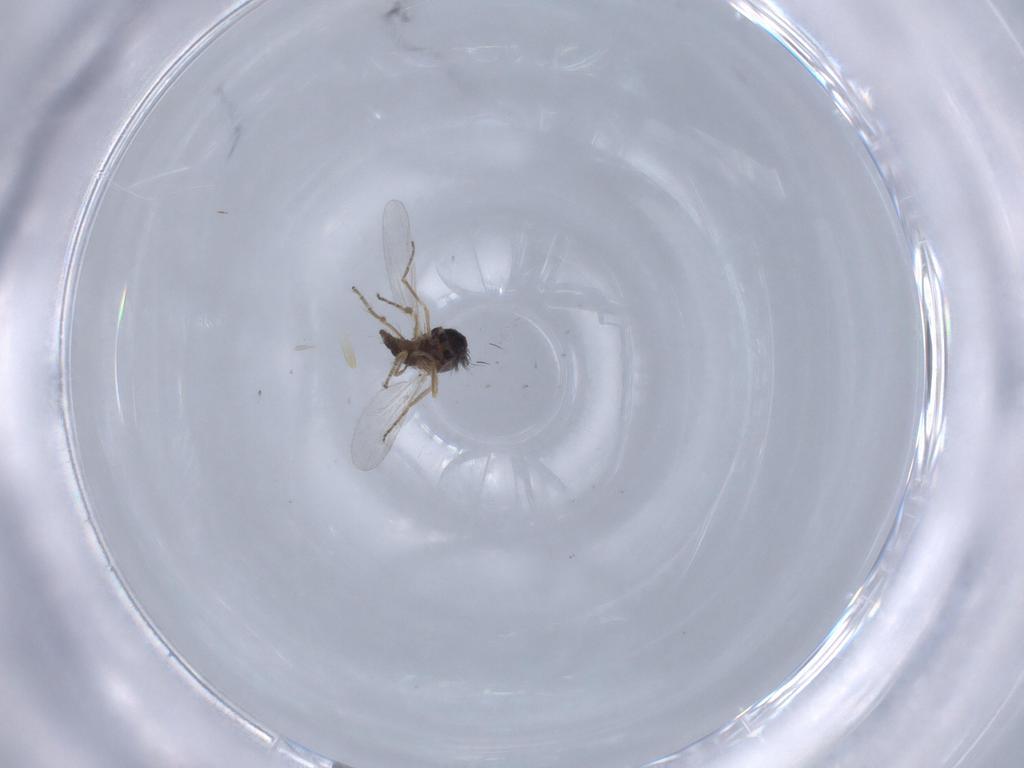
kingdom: Animalia
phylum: Arthropoda
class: Insecta
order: Diptera
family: Ceratopogonidae
